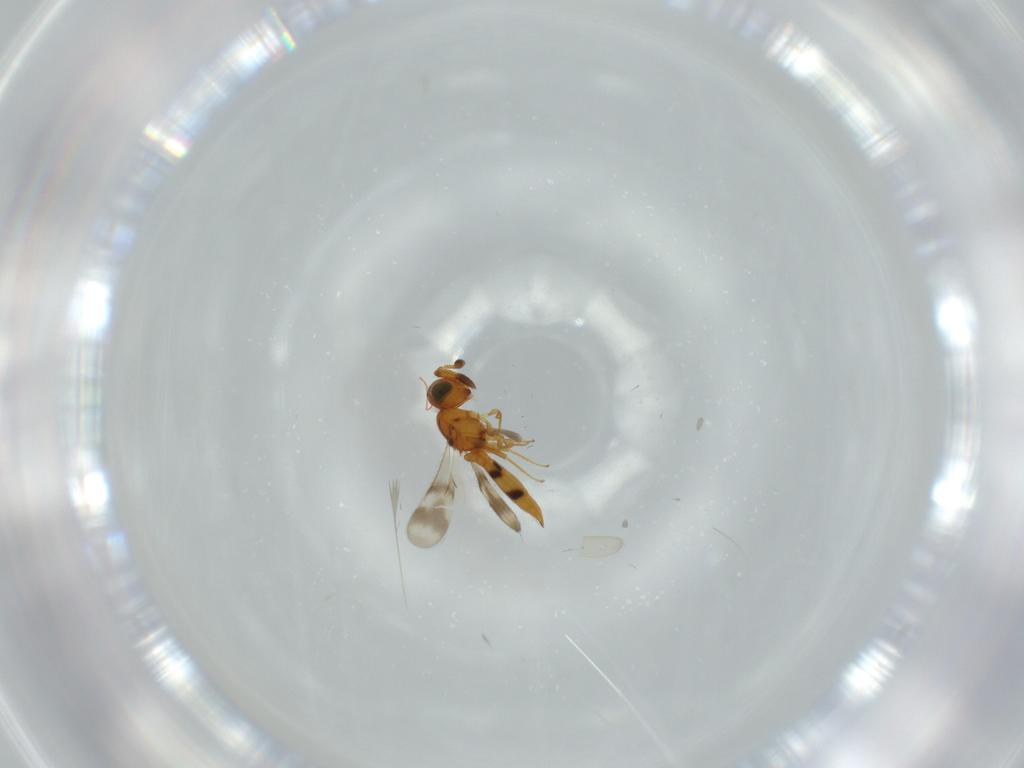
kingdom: Animalia
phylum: Arthropoda
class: Insecta
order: Hymenoptera
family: Scelionidae
